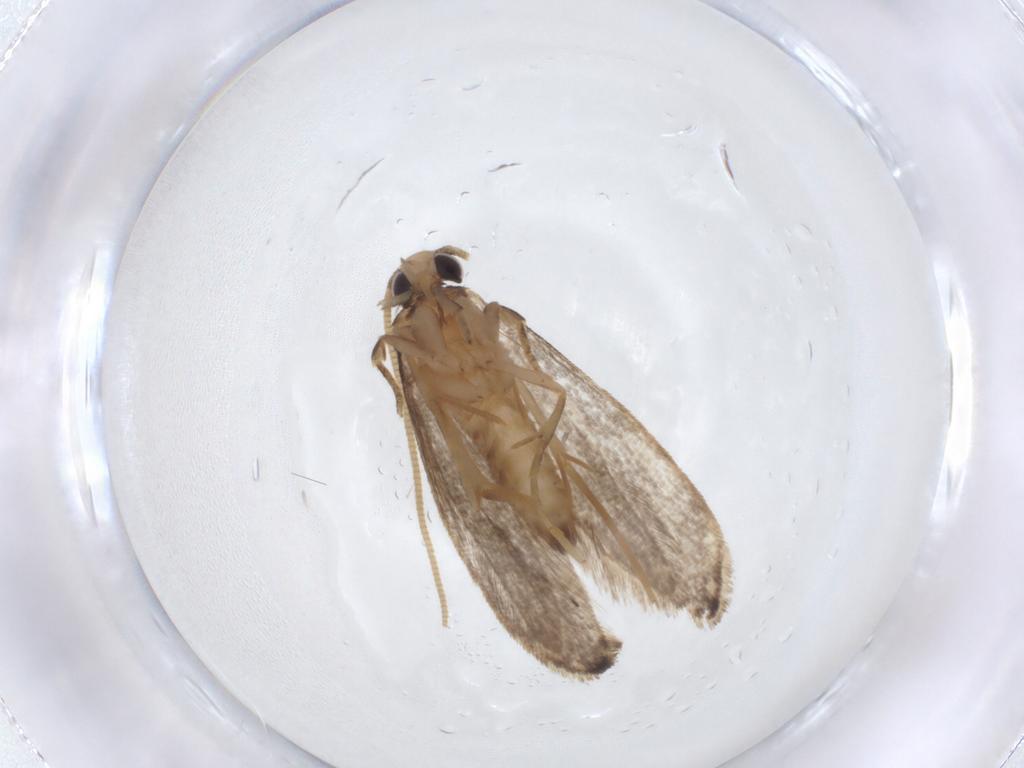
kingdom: Animalia
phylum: Arthropoda
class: Insecta
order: Lepidoptera
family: Tineidae
